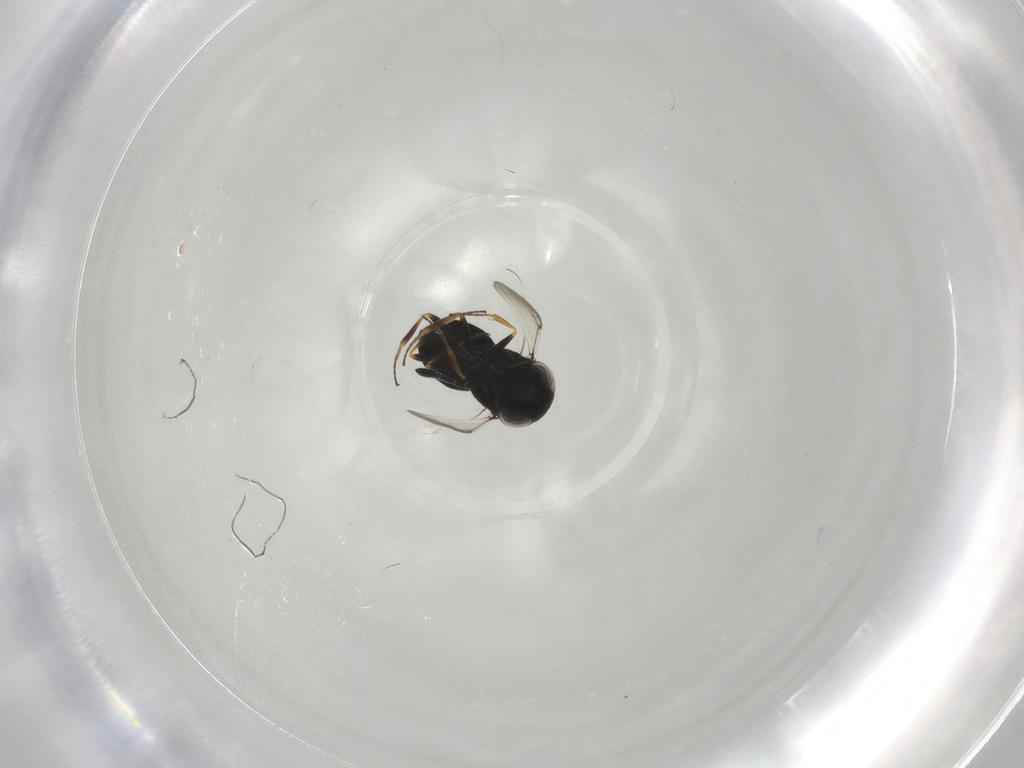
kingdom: Animalia
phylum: Arthropoda
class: Insecta
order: Hymenoptera
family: Scelionidae
